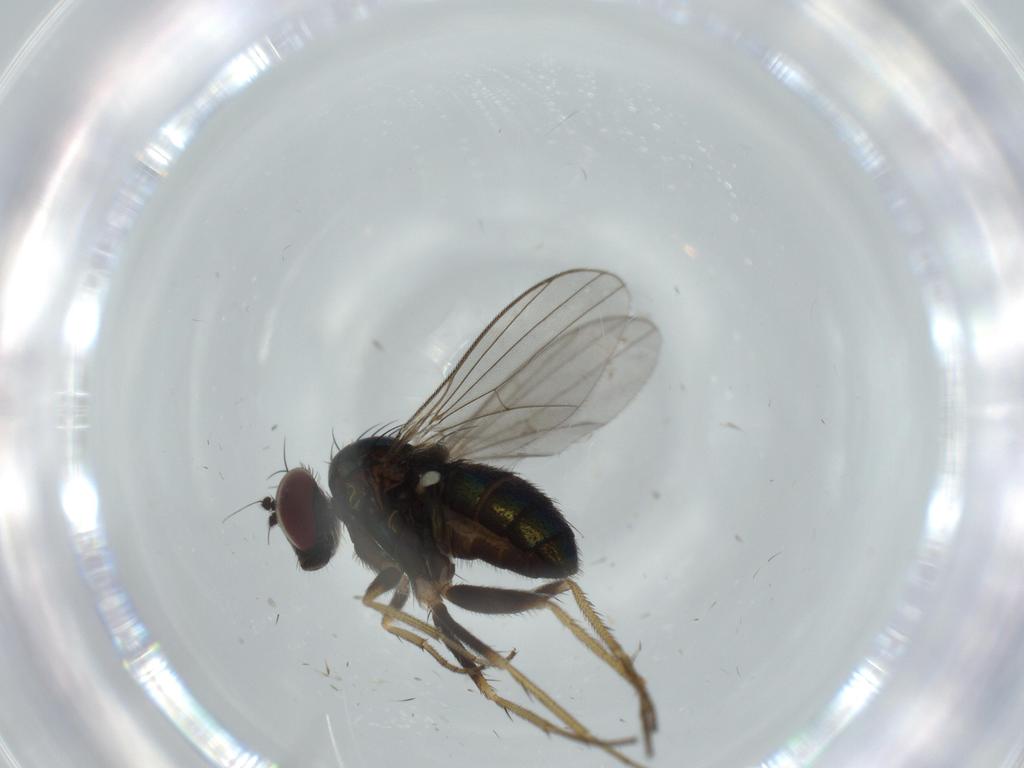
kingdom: Animalia
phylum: Arthropoda
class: Insecta
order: Diptera
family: Dolichopodidae
